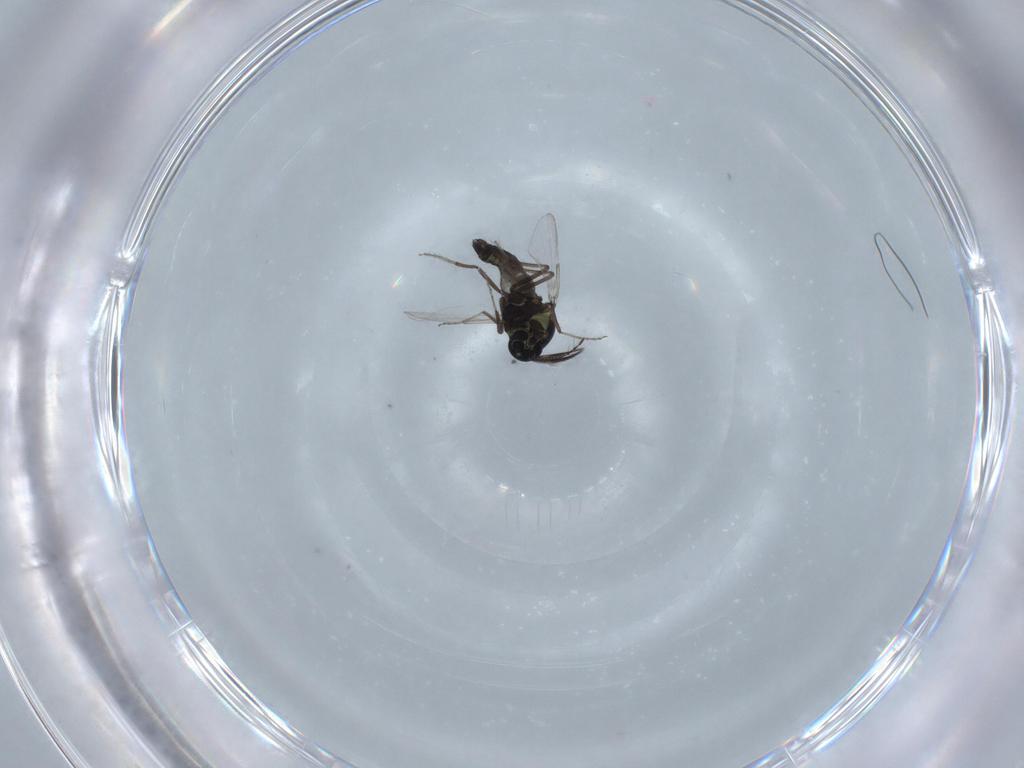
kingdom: Animalia
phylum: Arthropoda
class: Insecta
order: Diptera
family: Ceratopogonidae
